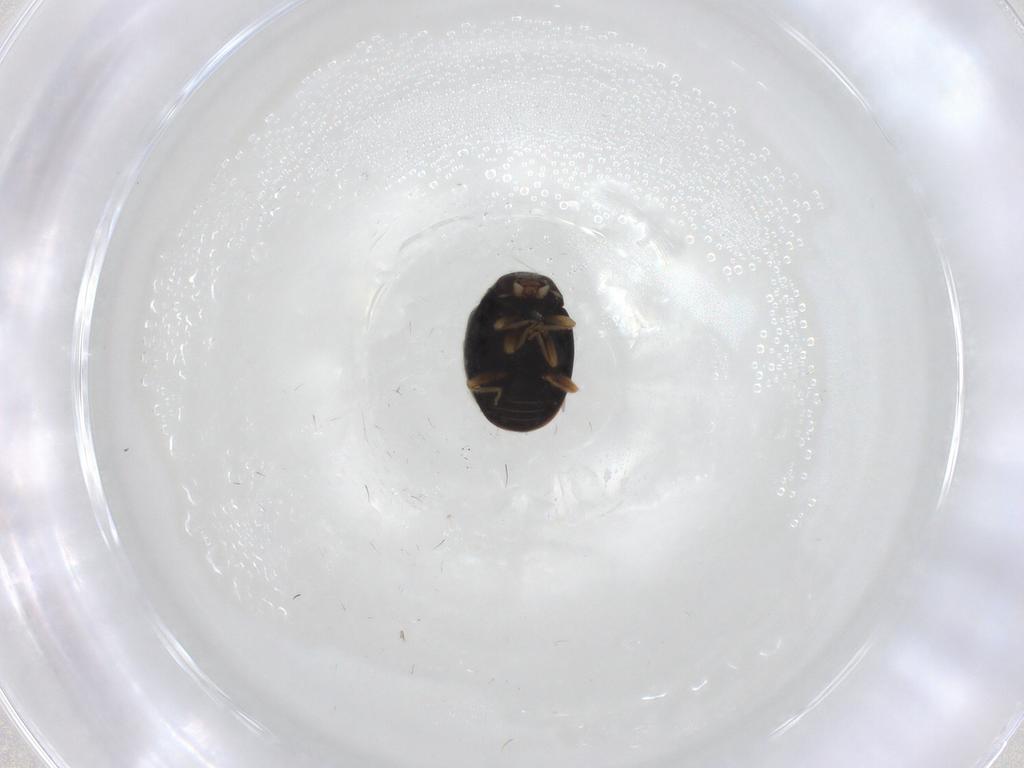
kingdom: Animalia
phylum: Arthropoda
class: Insecta
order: Coleoptera
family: Coccinellidae
